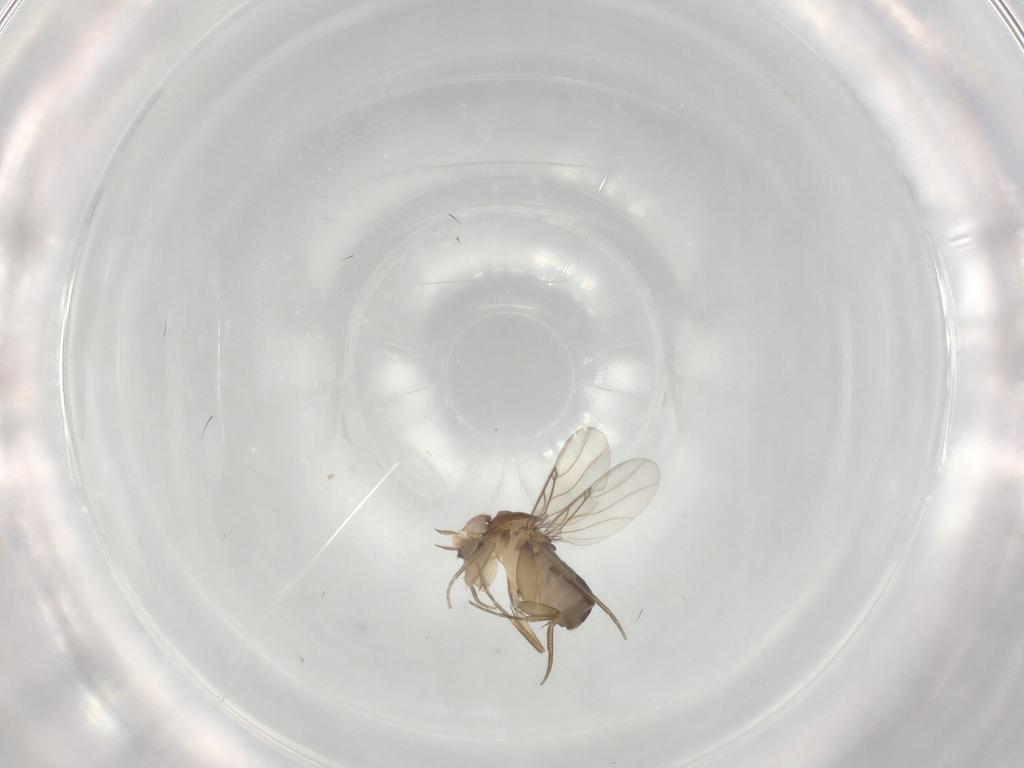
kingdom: Animalia
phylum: Arthropoda
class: Insecta
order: Diptera
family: Phoridae
